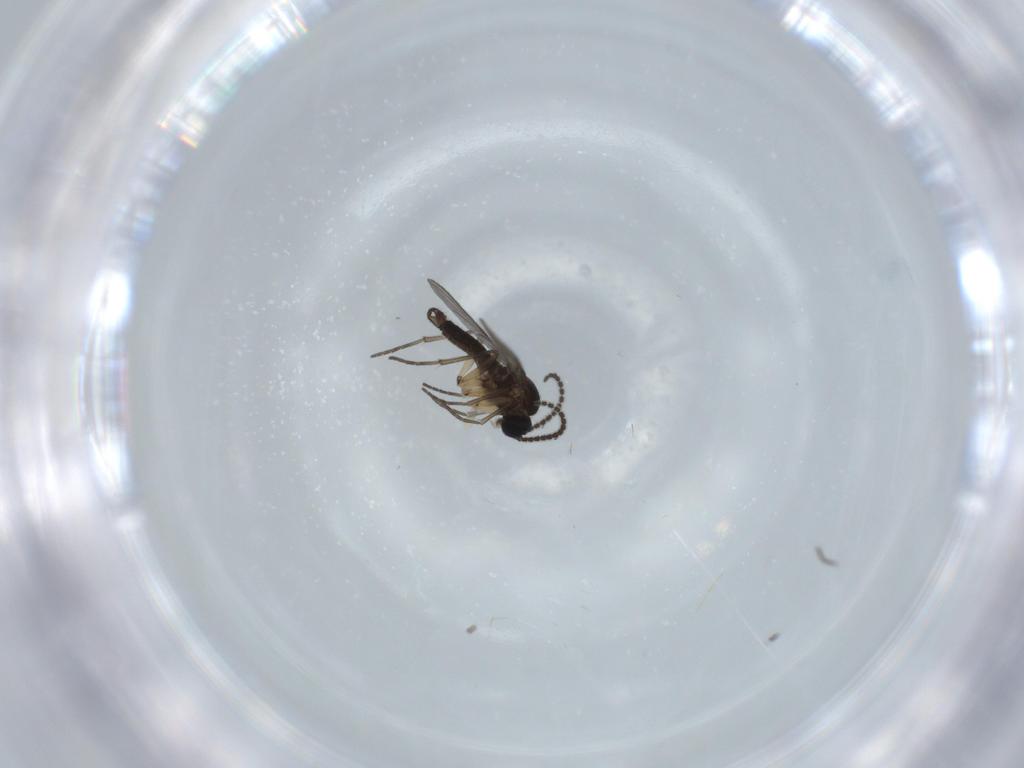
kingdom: Animalia
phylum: Arthropoda
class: Insecta
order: Diptera
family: Sciaridae
